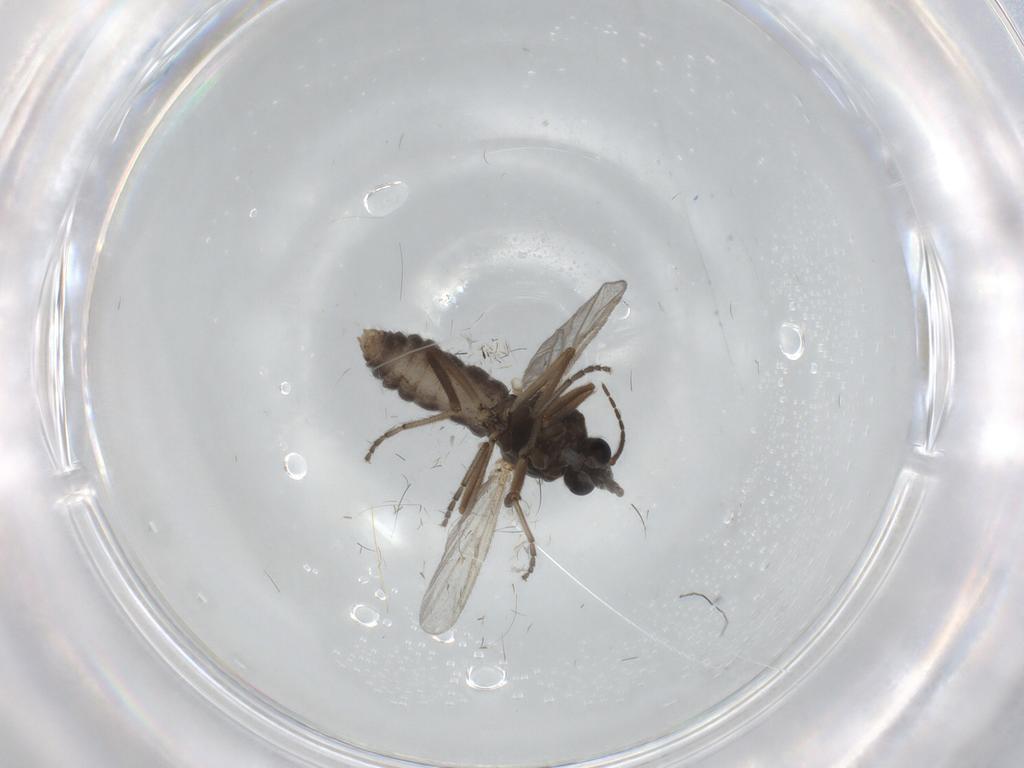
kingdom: Animalia
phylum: Arthropoda
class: Insecta
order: Diptera
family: Ceratopogonidae
